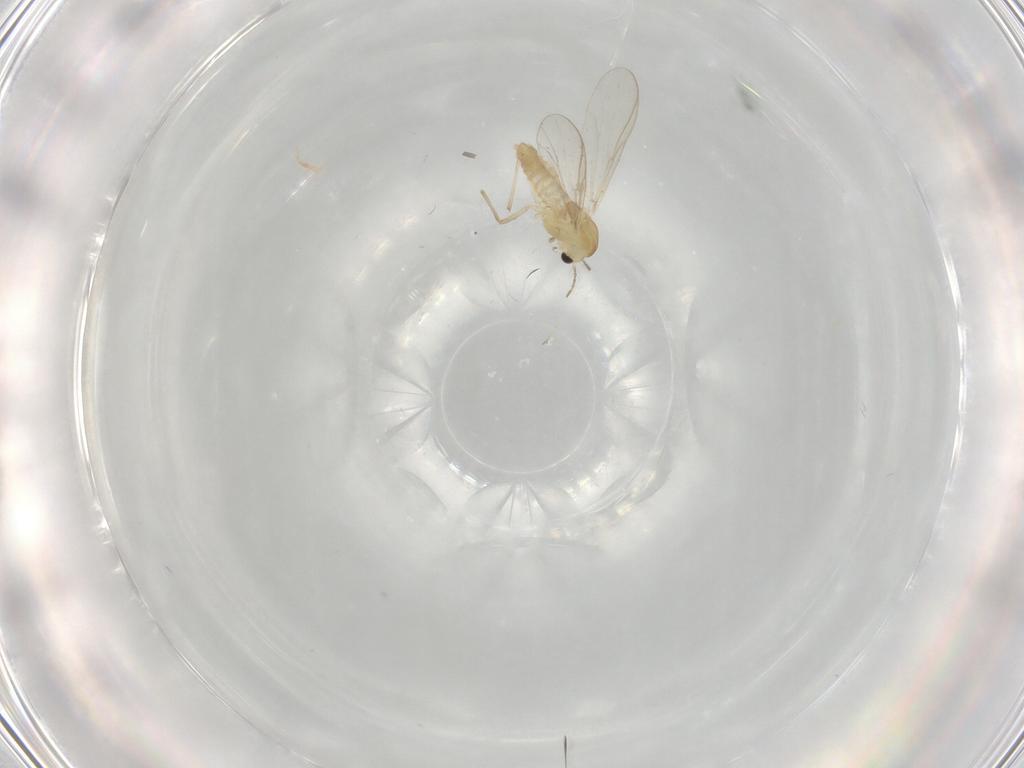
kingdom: Animalia
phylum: Arthropoda
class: Insecta
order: Diptera
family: Chironomidae
